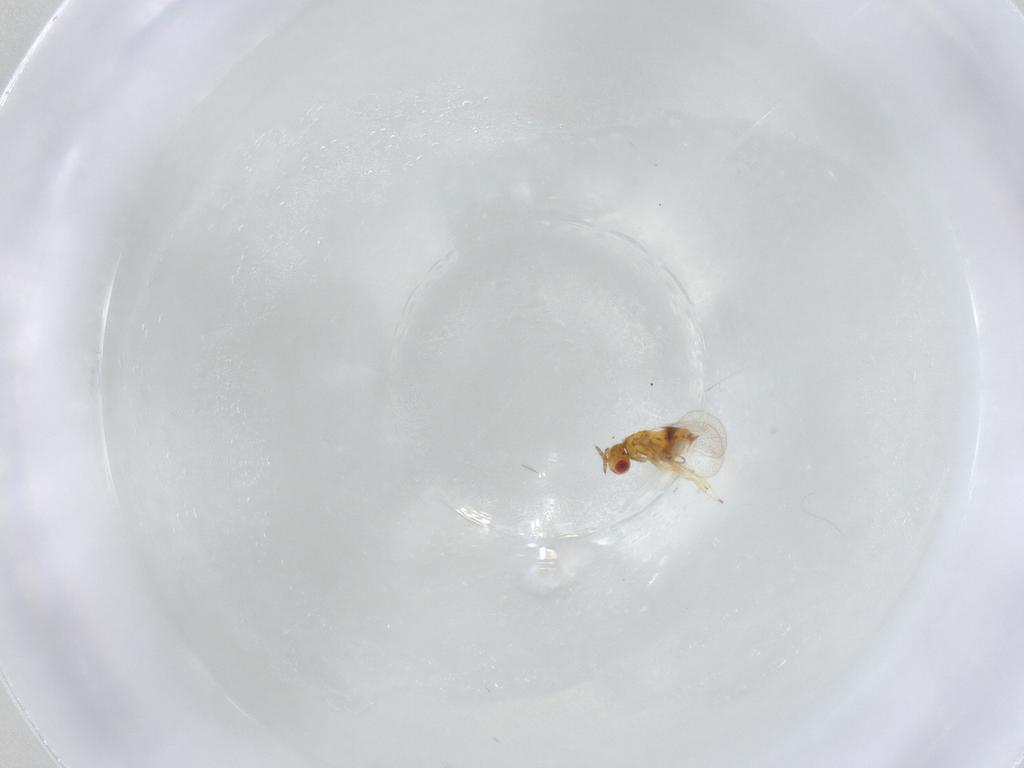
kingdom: Animalia
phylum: Arthropoda
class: Insecta
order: Hymenoptera
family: Trichogrammatidae
